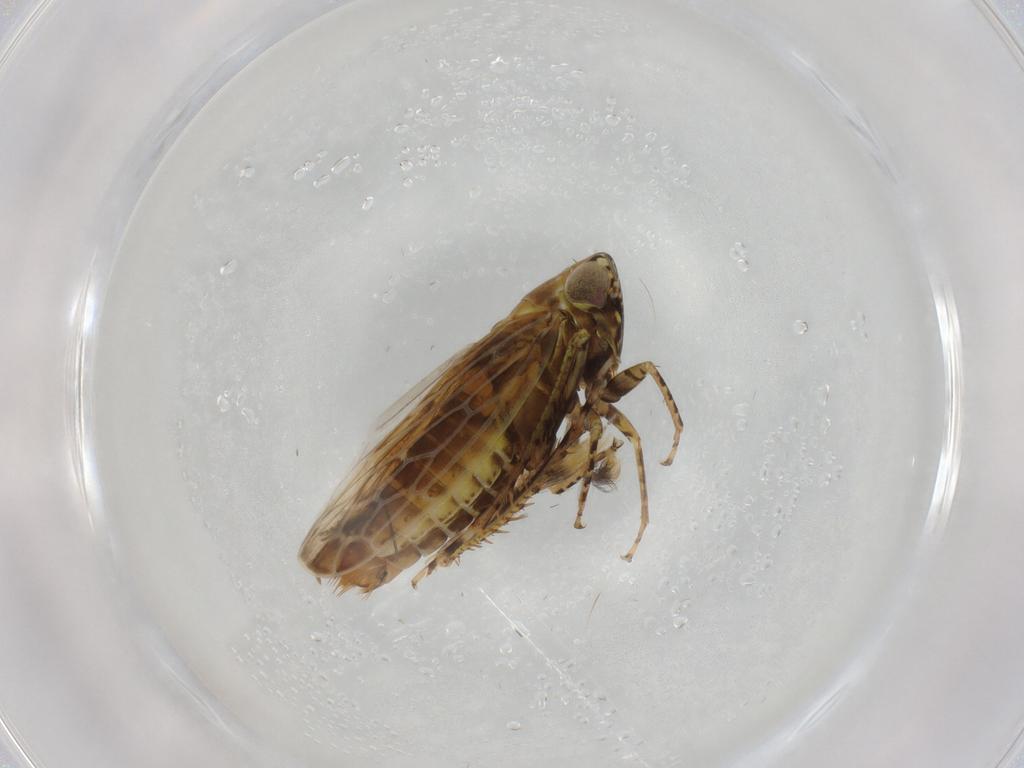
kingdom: Animalia
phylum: Arthropoda
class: Insecta
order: Hemiptera
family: Cicadellidae
